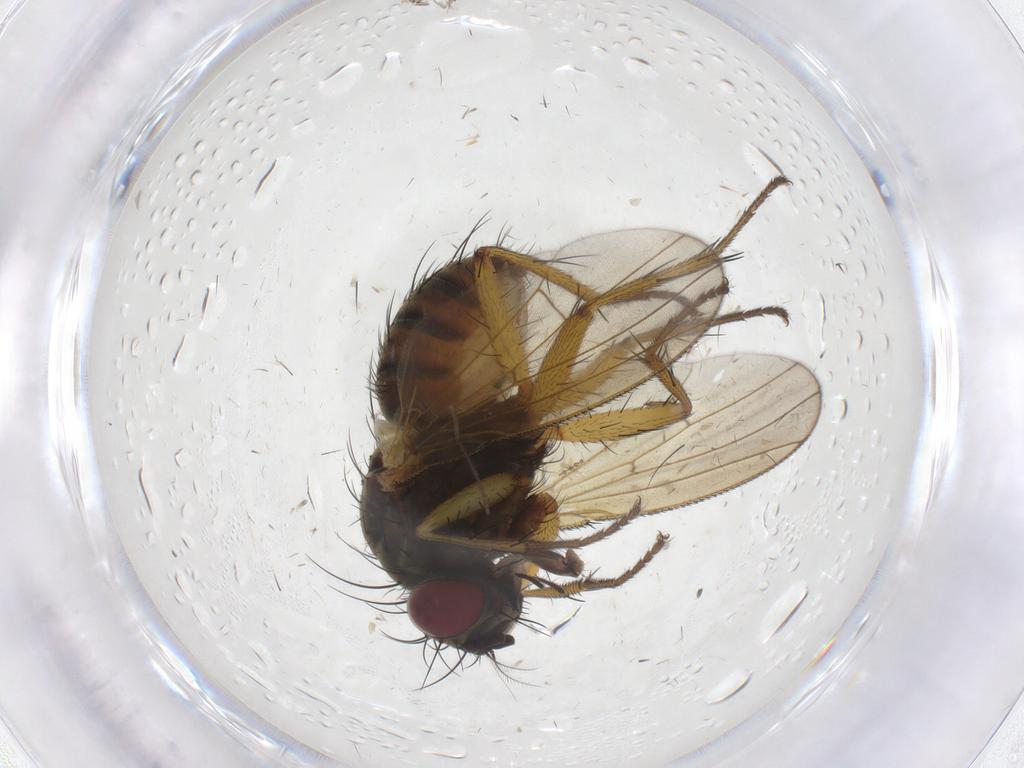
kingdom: Animalia
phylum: Arthropoda
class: Insecta
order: Diptera
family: Muscidae
